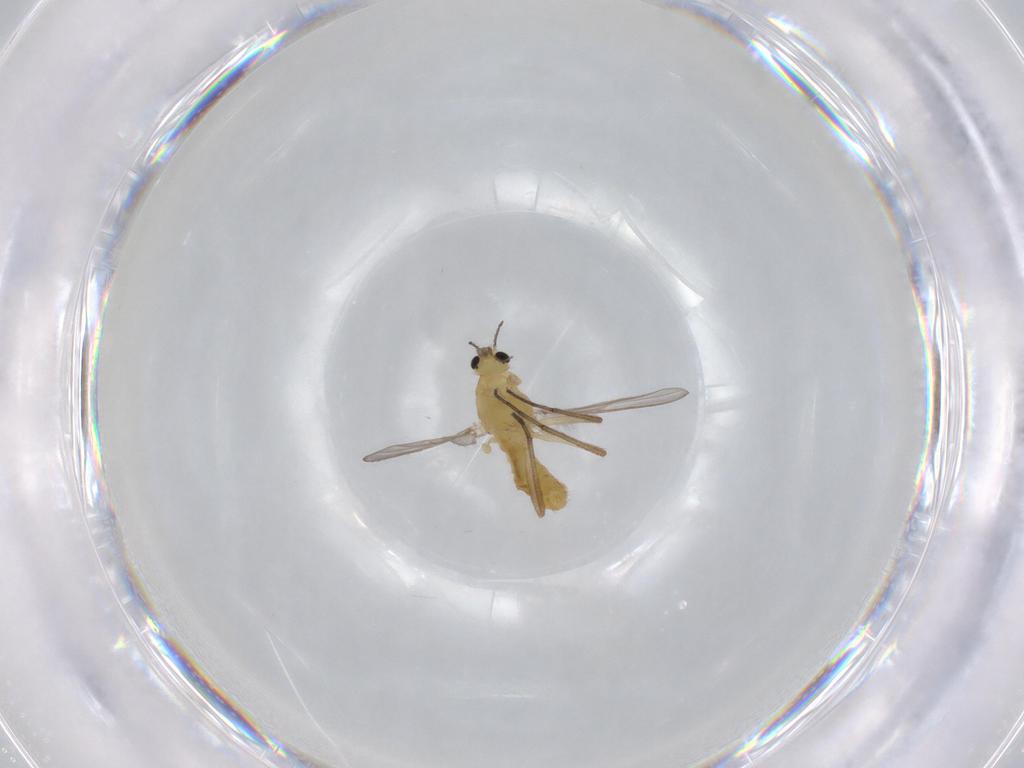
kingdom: Animalia
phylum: Arthropoda
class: Insecta
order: Diptera
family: Chironomidae
